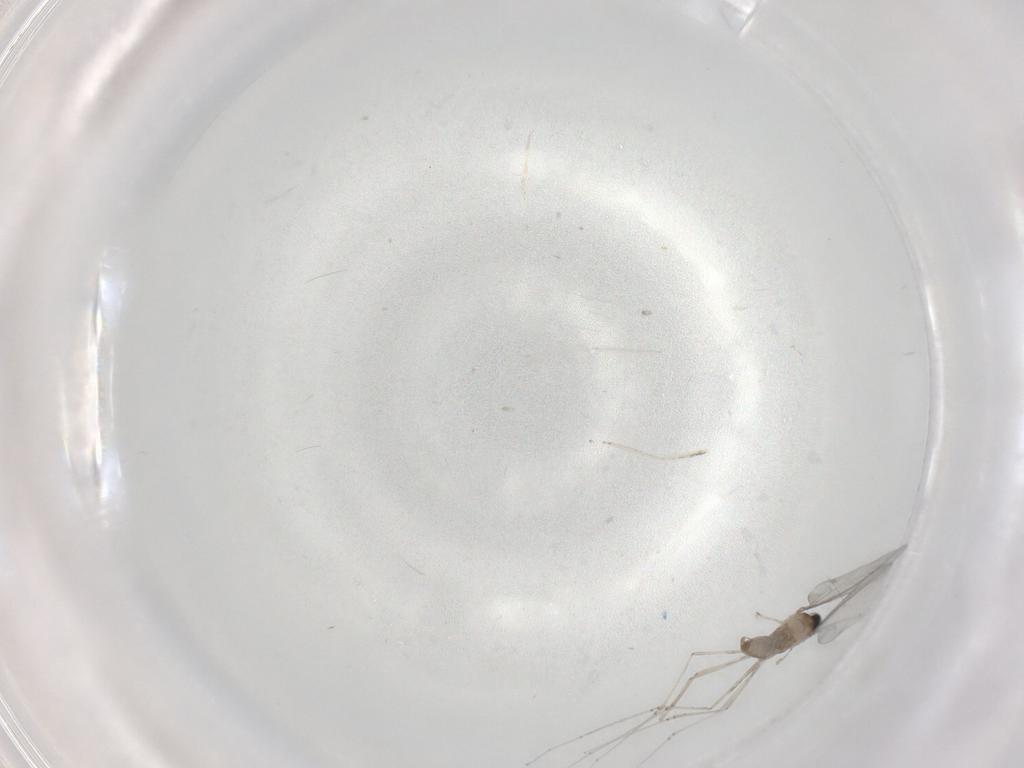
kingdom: Animalia
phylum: Arthropoda
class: Insecta
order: Diptera
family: Cecidomyiidae
